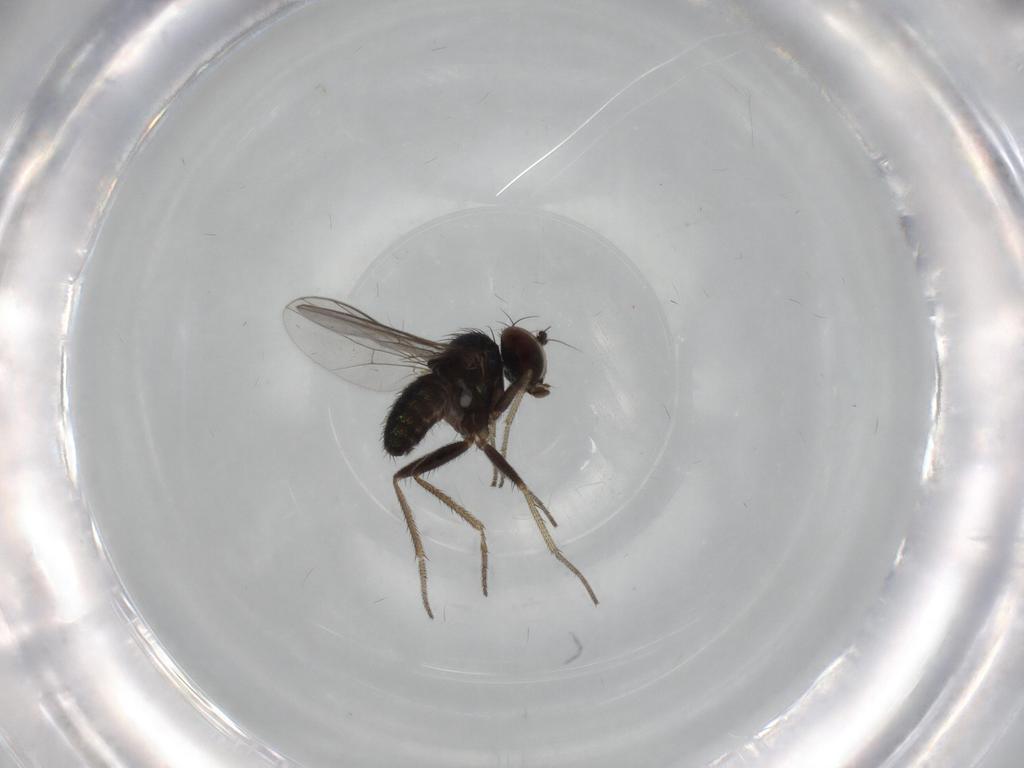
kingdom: Animalia
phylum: Arthropoda
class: Insecta
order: Diptera
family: Dolichopodidae
